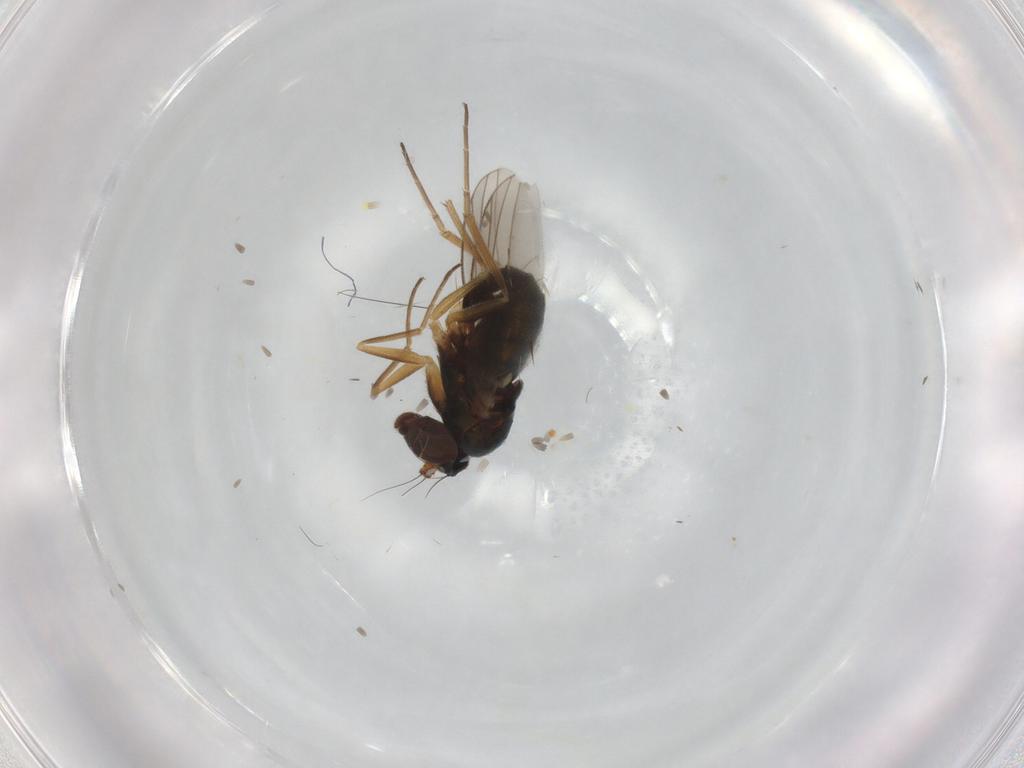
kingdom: Animalia
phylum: Arthropoda
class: Insecta
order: Diptera
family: Dolichopodidae
